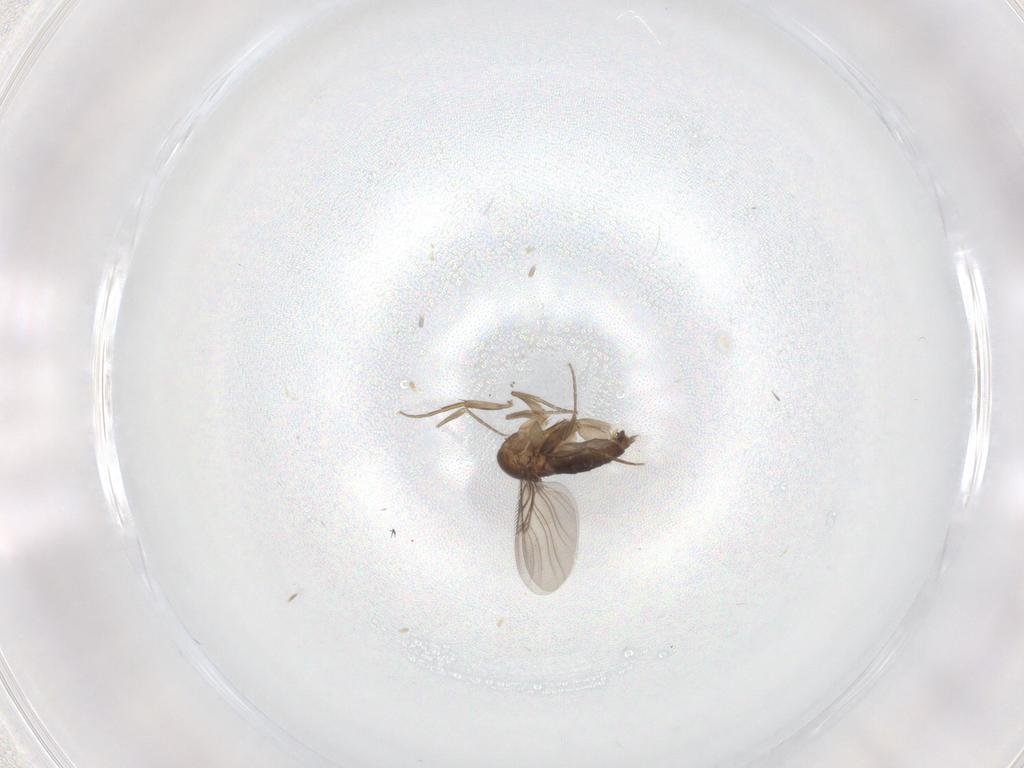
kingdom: Animalia
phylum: Arthropoda
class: Insecta
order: Diptera
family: Phoridae
